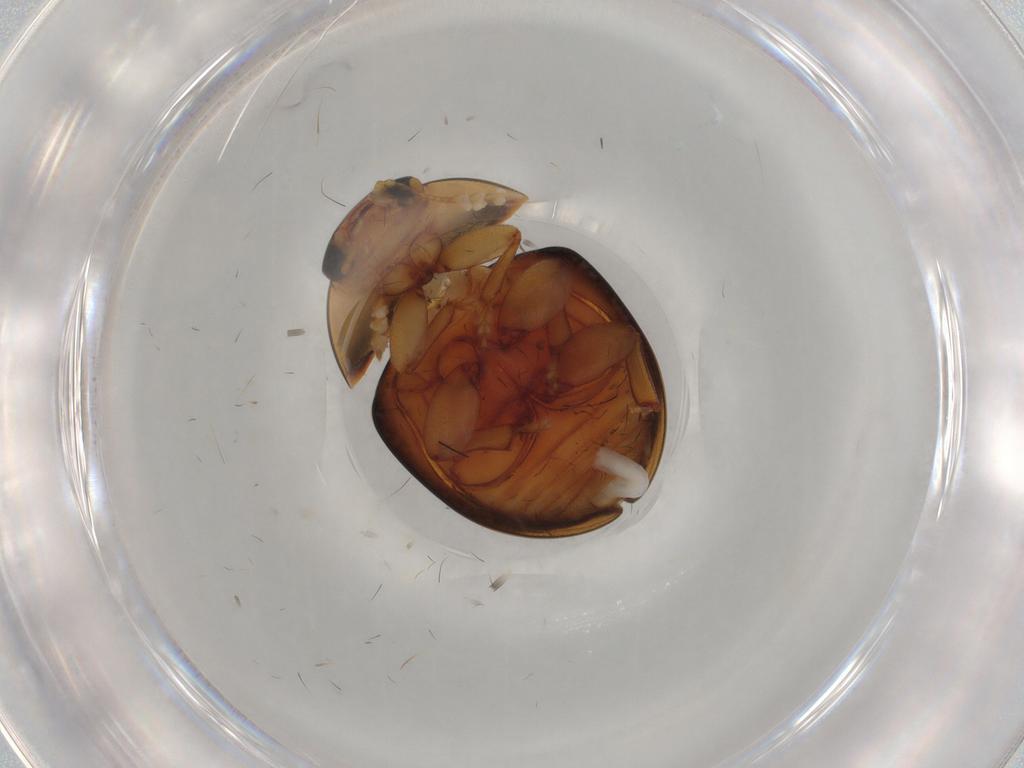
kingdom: Animalia
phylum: Arthropoda
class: Insecta
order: Coleoptera
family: Phalacridae
